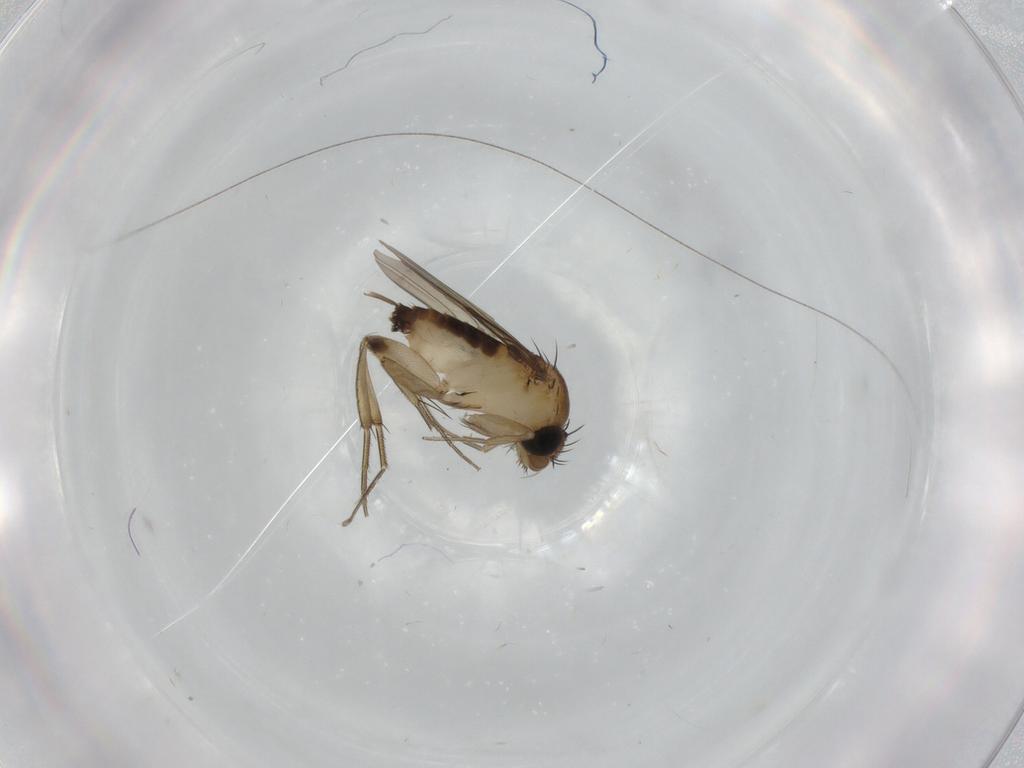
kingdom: Animalia
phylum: Arthropoda
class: Insecta
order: Diptera
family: Phoridae
